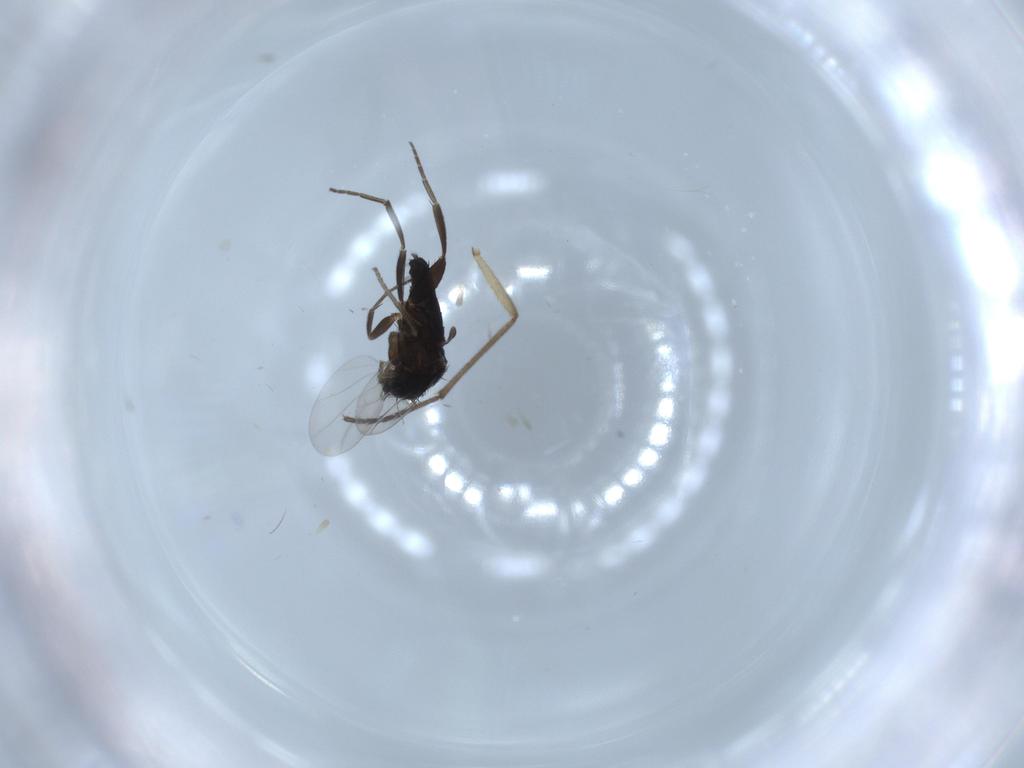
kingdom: Animalia
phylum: Arthropoda
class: Insecta
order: Diptera
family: Phoridae
